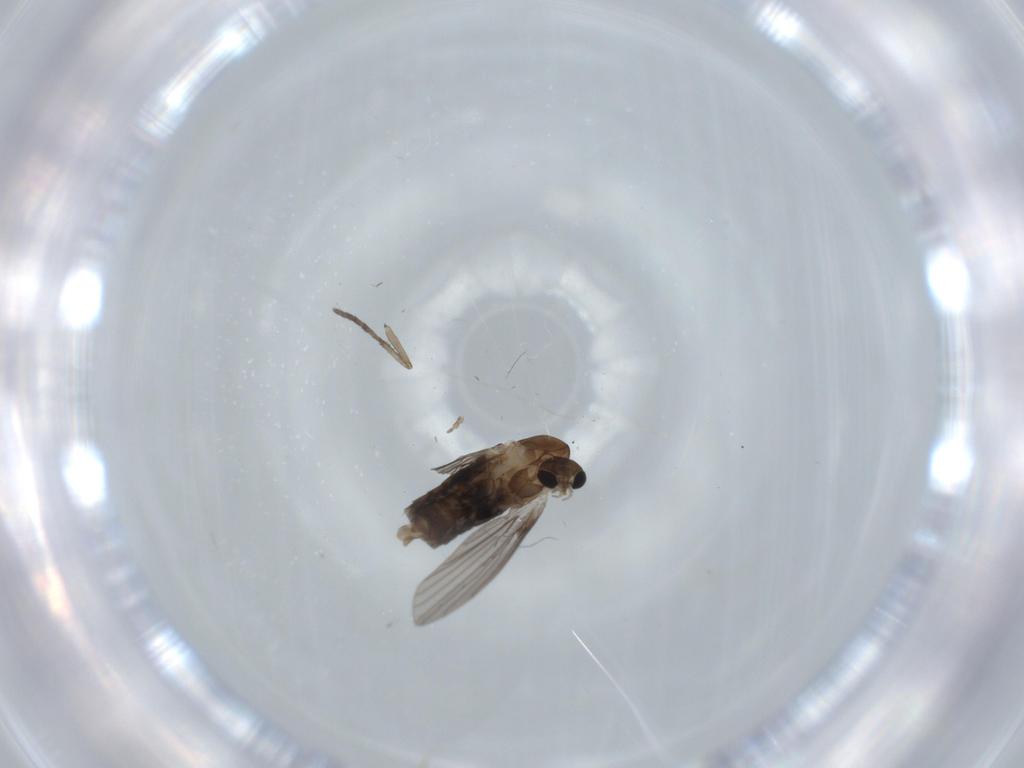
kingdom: Animalia
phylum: Arthropoda
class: Insecta
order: Diptera
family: Psychodidae
